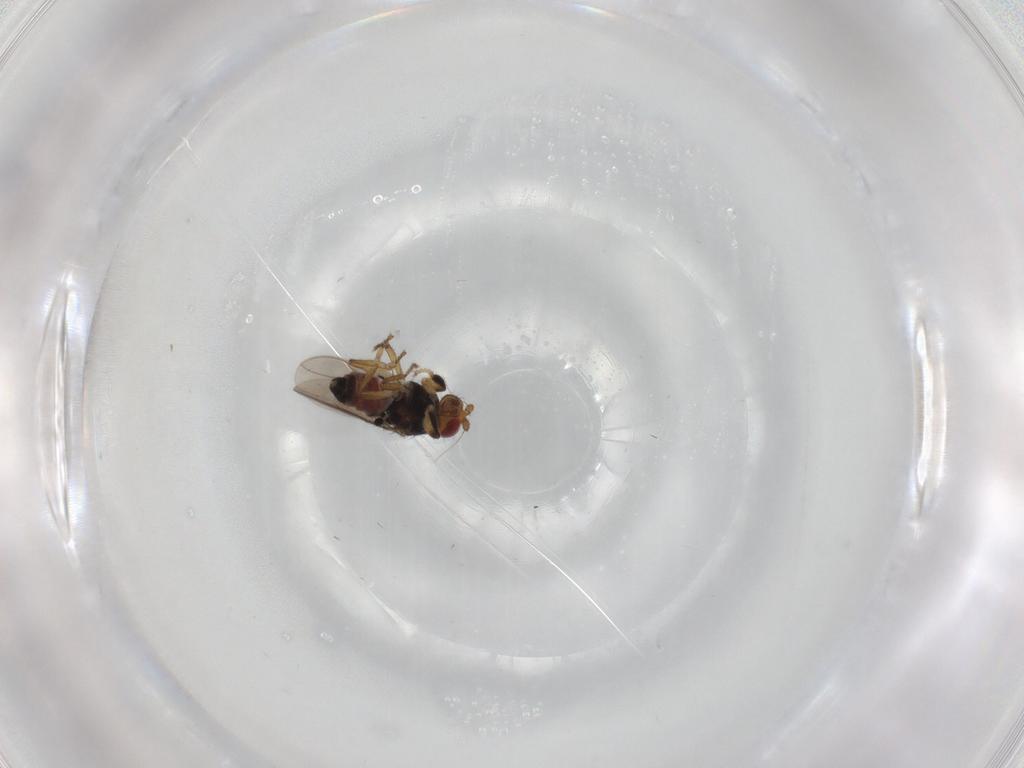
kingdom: Animalia
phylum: Arthropoda
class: Insecta
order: Diptera
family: Sphaeroceridae
